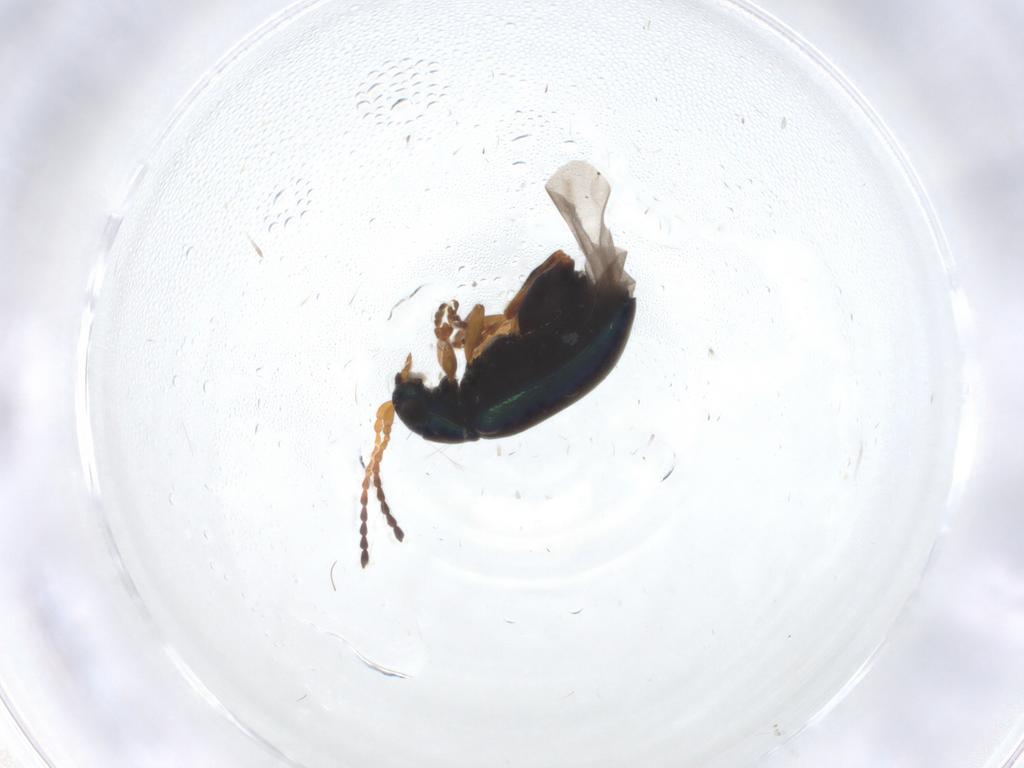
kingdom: Animalia
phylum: Arthropoda
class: Insecta
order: Coleoptera
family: Chrysomelidae
